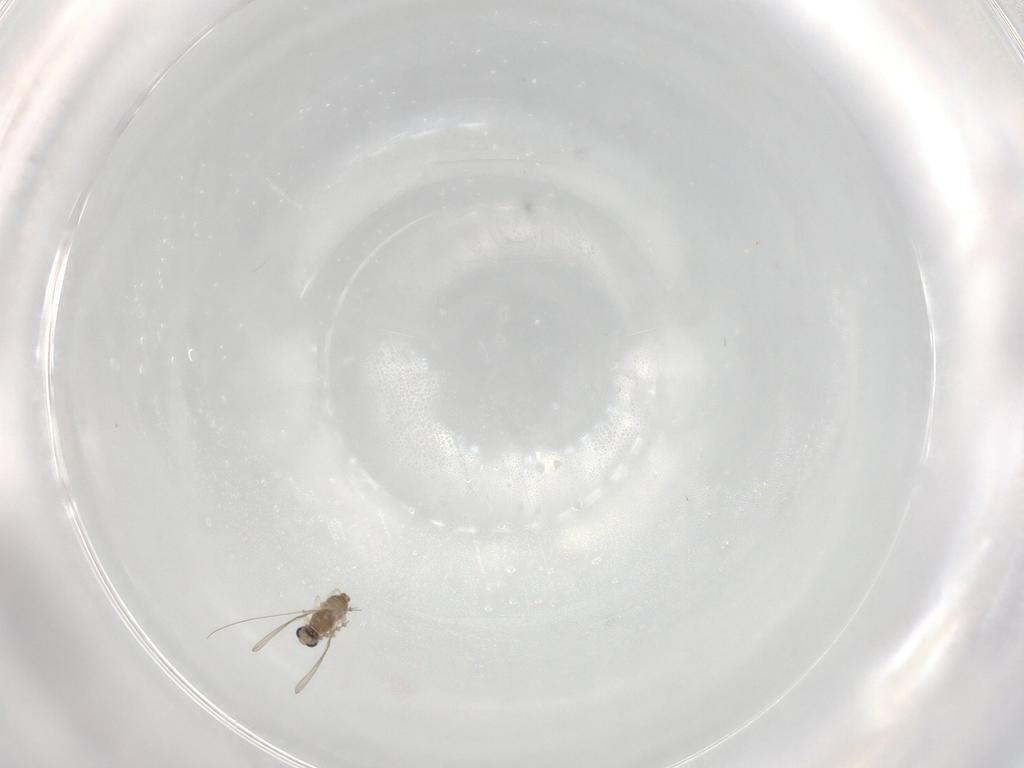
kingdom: Animalia
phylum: Arthropoda
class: Insecta
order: Diptera
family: Cecidomyiidae
